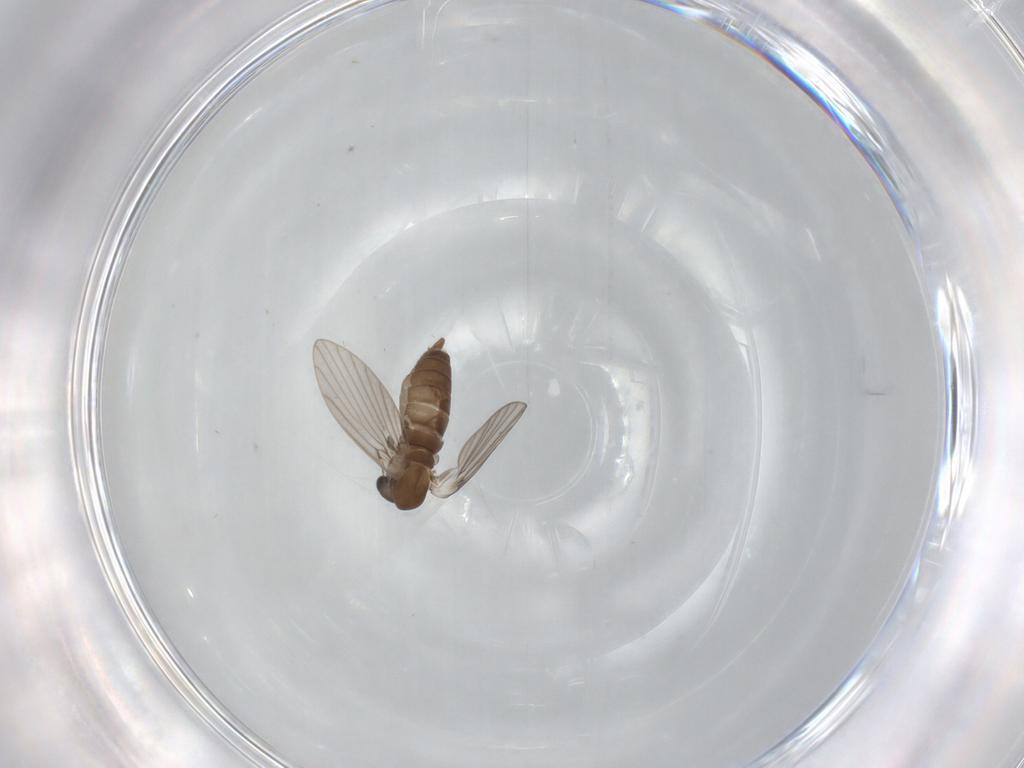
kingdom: Animalia
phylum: Arthropoda
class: Insecta
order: Diptera
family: Psychodidae
